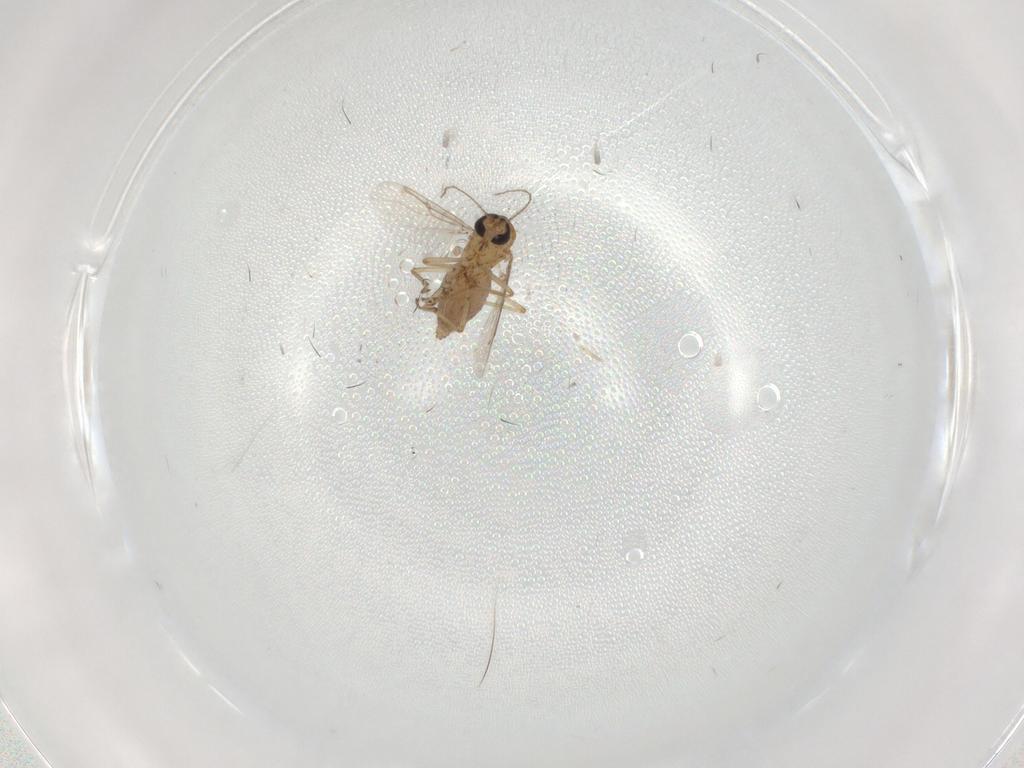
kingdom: Animalia
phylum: Arthropoda
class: Insecta
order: Diptera
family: Ceratopogonidae
